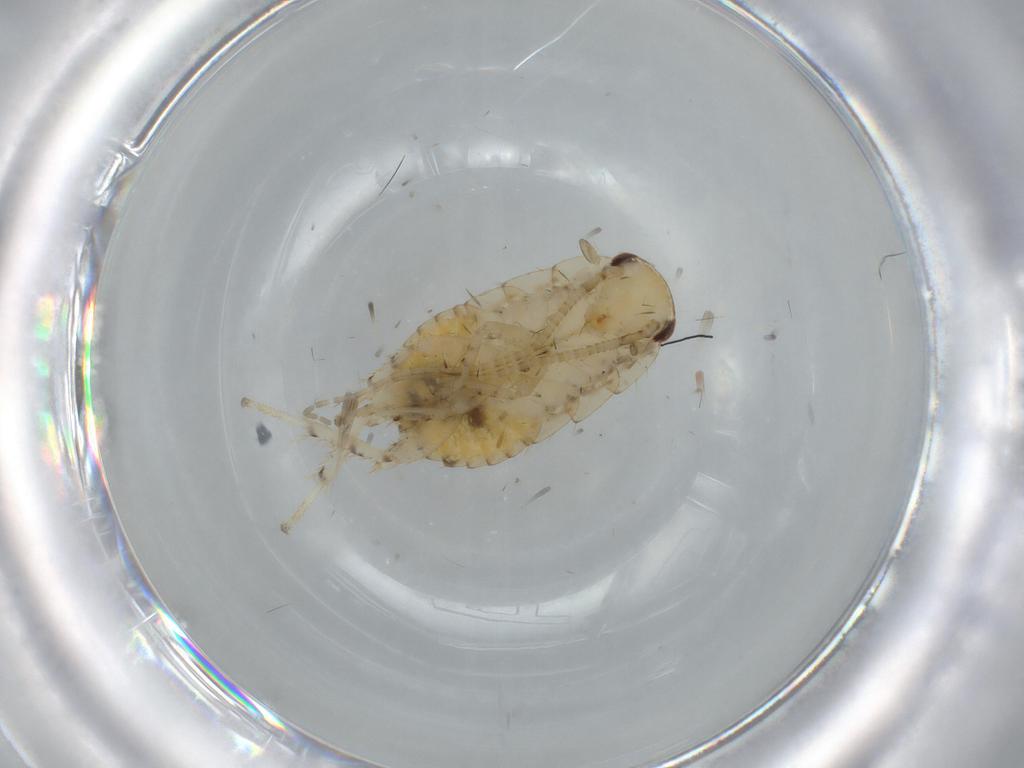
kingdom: Animalia
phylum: Arthropoda
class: Insecta
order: Blattodea
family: Ectobiidae
